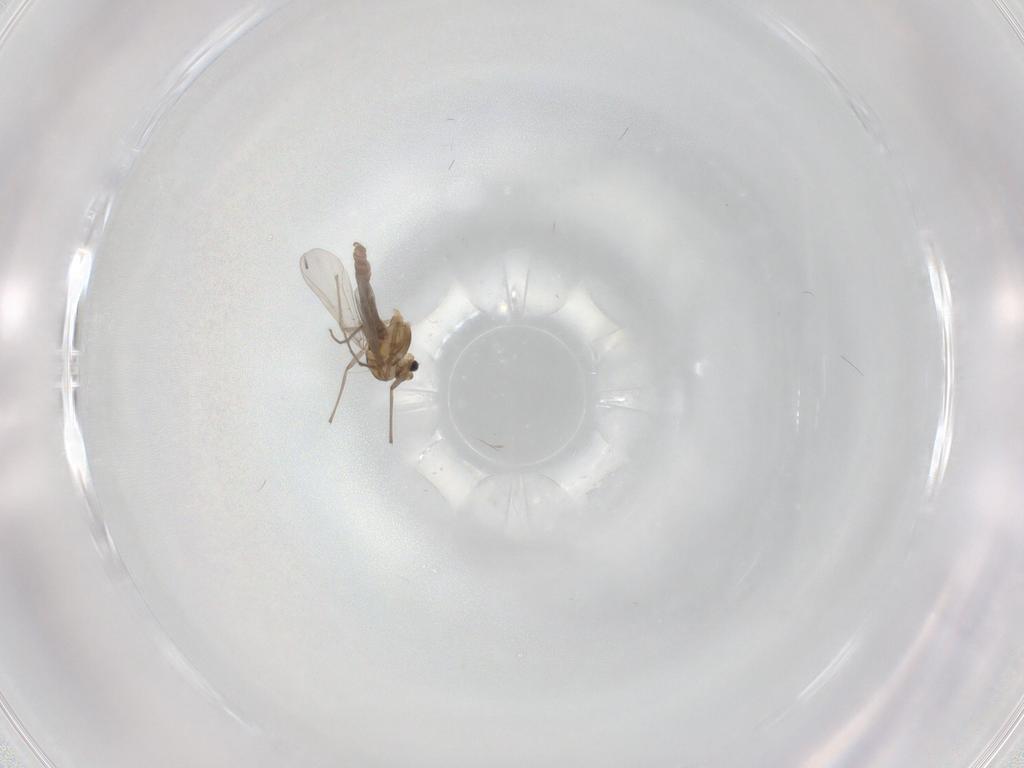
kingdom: Animalia
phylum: Arthropoda
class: Insecta
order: Diptera
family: Chironomidae
